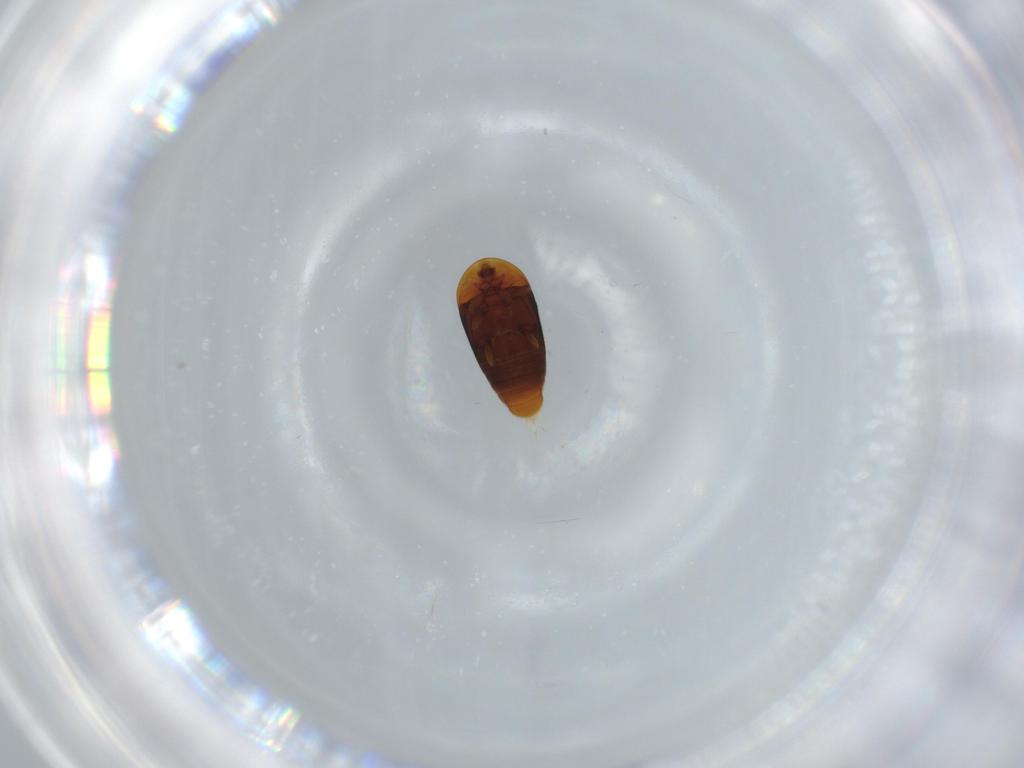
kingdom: Animalia
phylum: Arthropoda
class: Insecta
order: Coleoptera
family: Corylophidae
